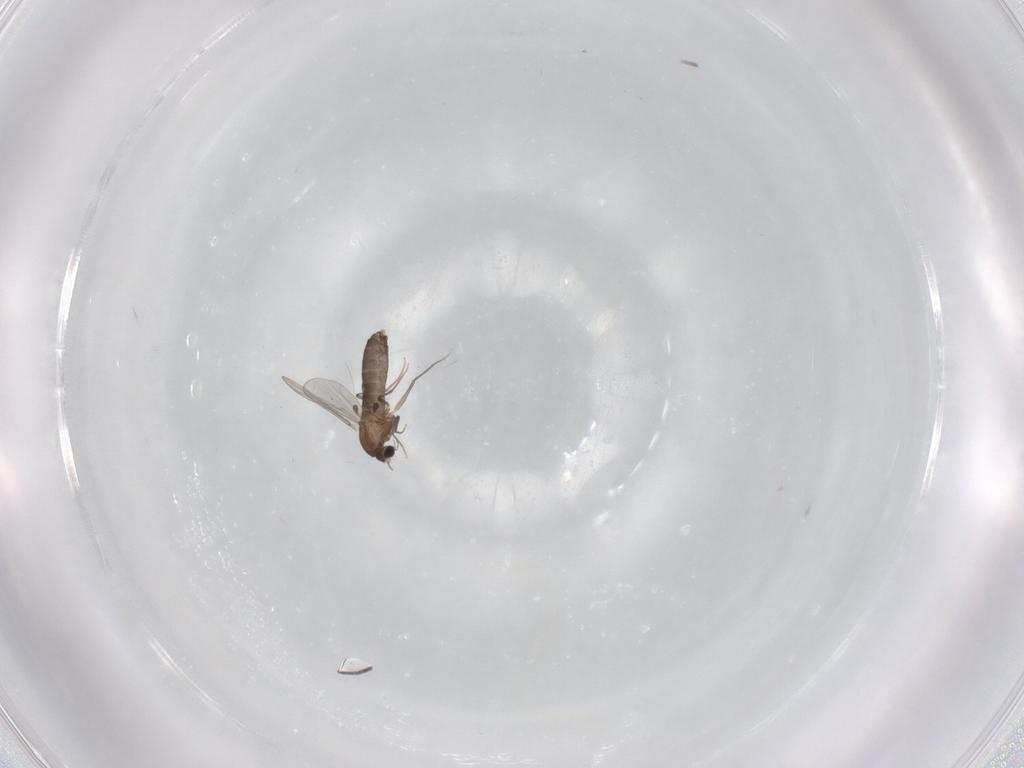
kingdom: Animalia
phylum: Arthropoda
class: Insecta
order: Diptera
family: Chironomidae
